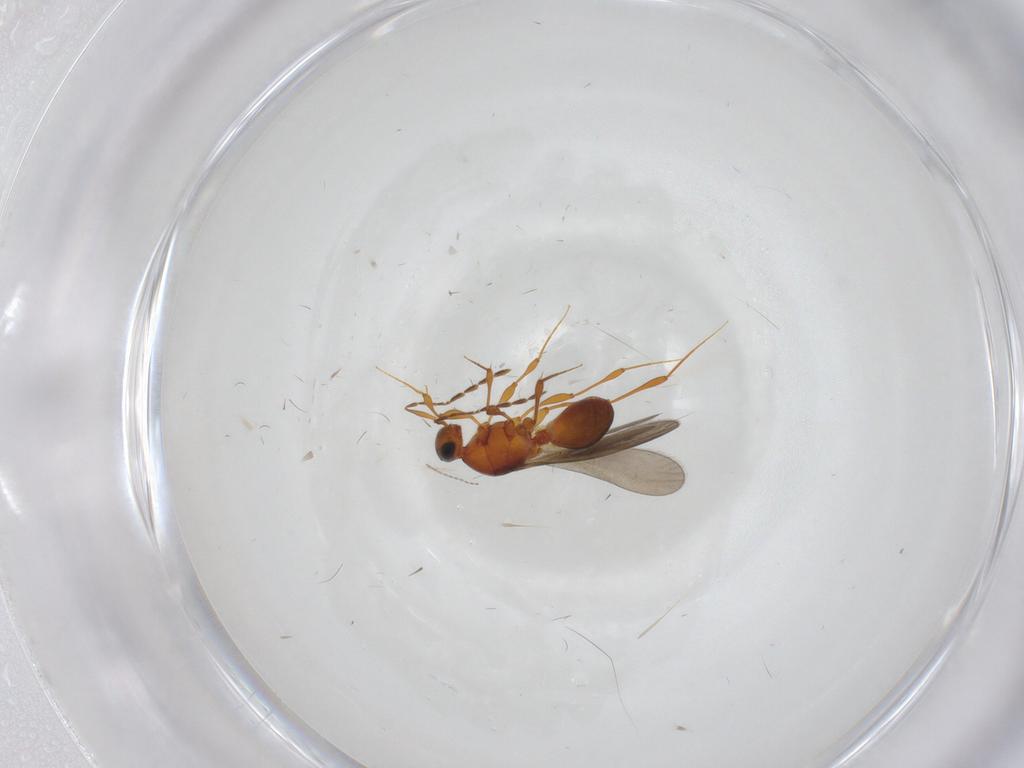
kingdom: Animalia
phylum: Arthropoda
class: Insecta
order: Hymenoptera
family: Platygastridae
